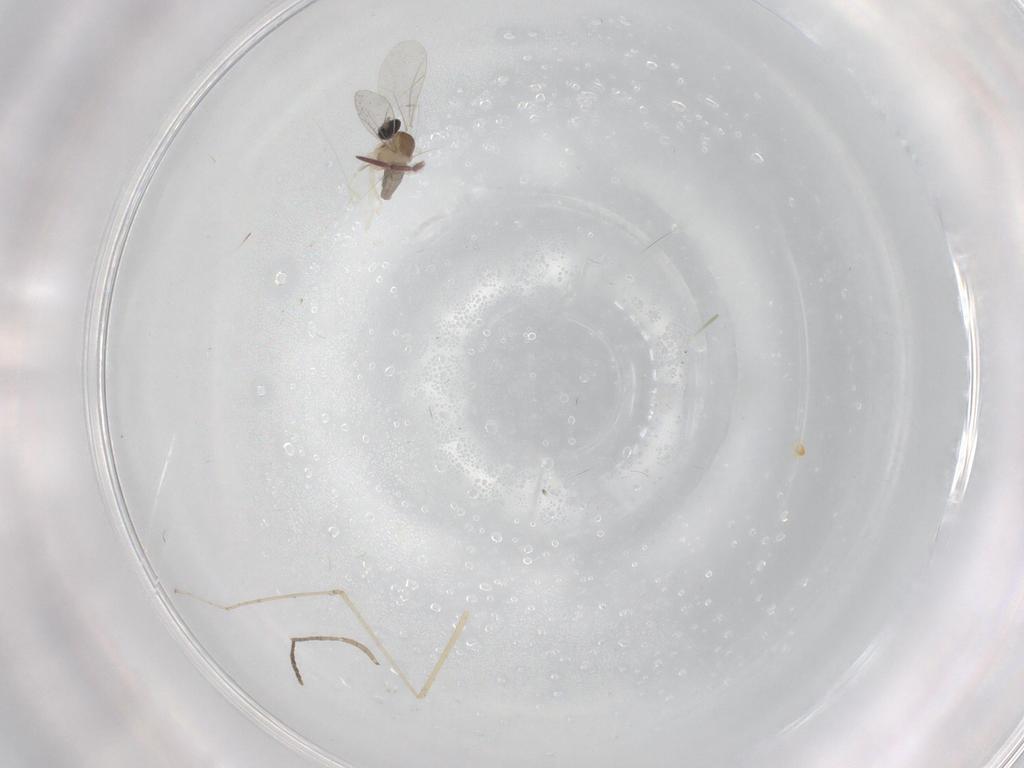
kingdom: Animalia
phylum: Arthropoda
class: Insecta
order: Diptera
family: Cecidomyiidae
